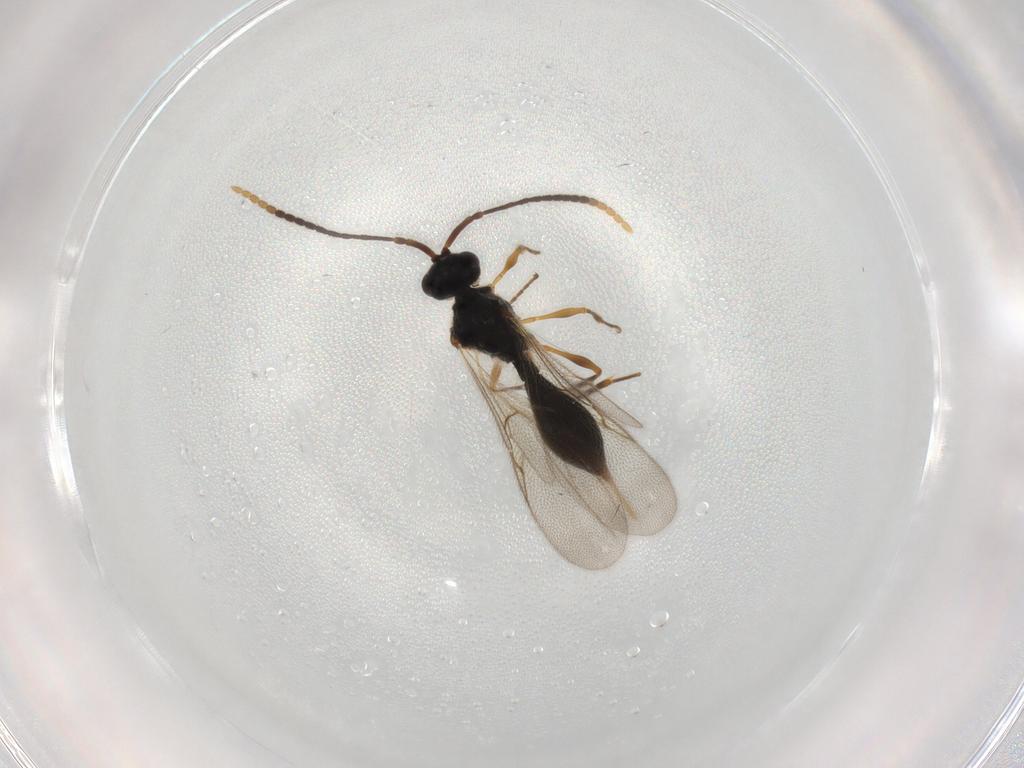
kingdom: Animalia
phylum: Arthropoda
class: Insecta
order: Hymenoptera
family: Diapriidae
